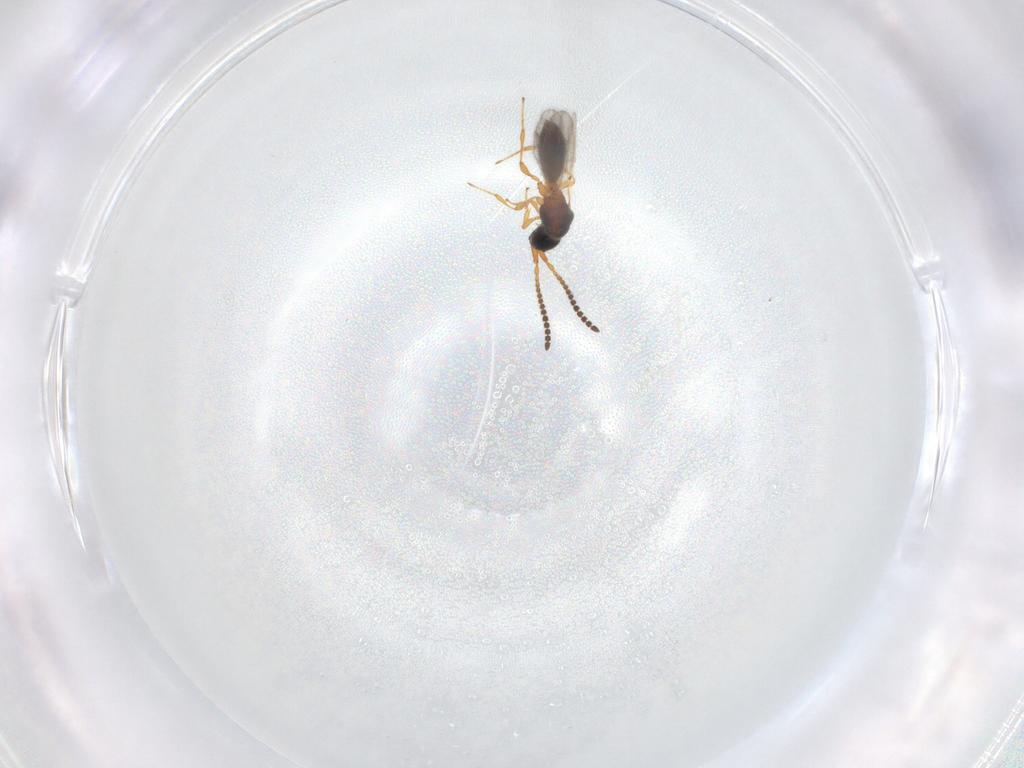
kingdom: Animalia
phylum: Arthropoda
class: Insecta
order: Hymenoptera
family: Diapriidae
